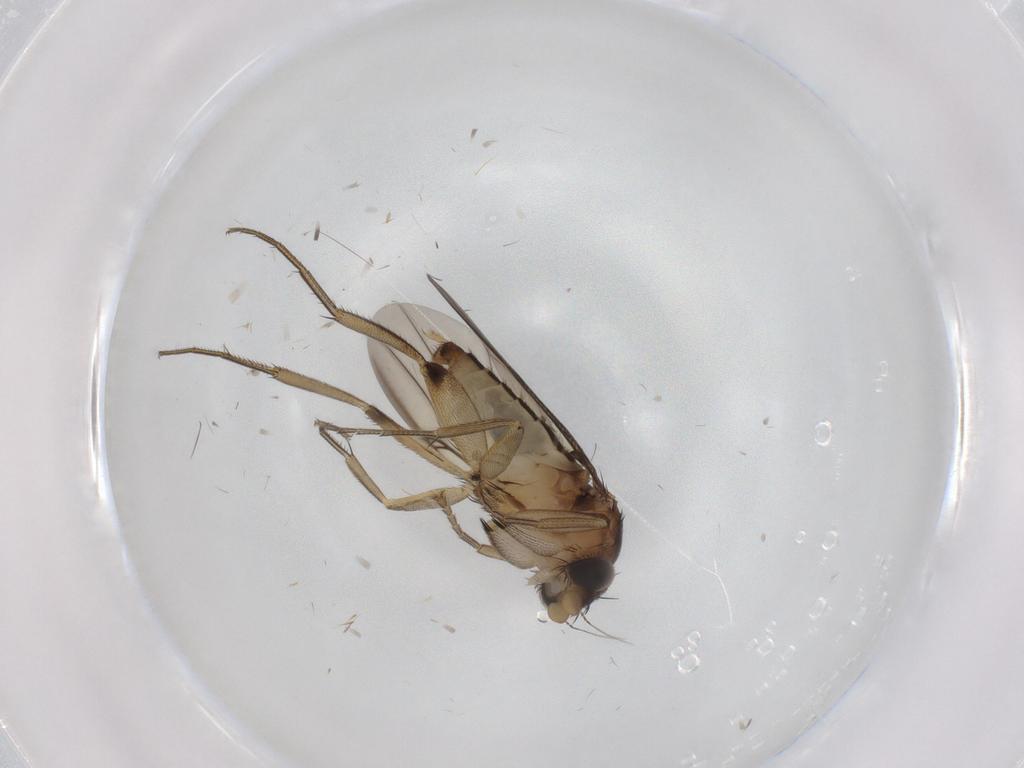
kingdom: Animalia
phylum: Arthropoda
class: Insecta
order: Diptera
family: Phoridae
